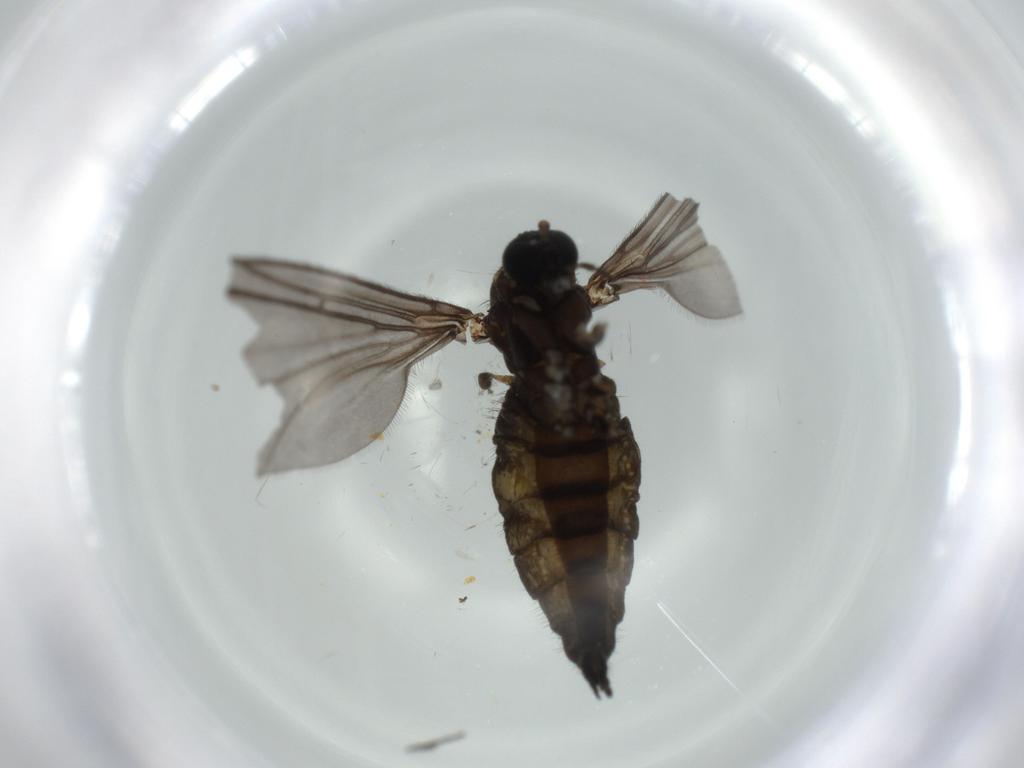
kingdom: Animalia
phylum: Arthropoda
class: Insecta
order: Diptera
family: Sciaridae
